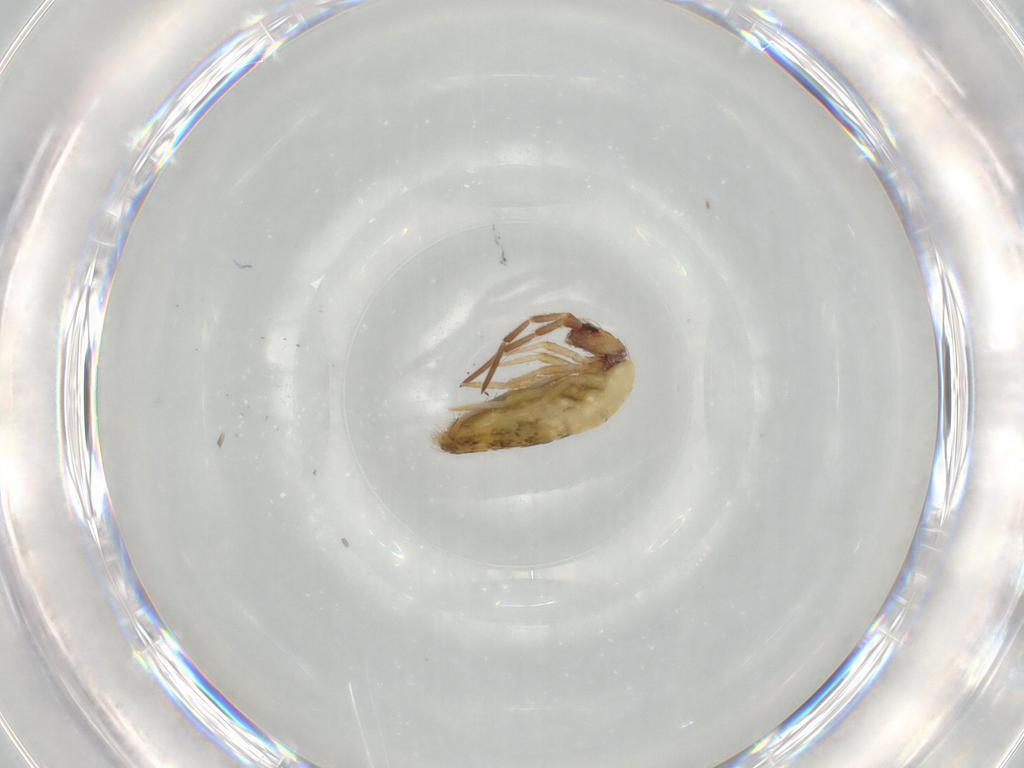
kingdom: Animalia
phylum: Arthropoda
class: Collembola
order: Entomobryomorpha
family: Entomobryidae
